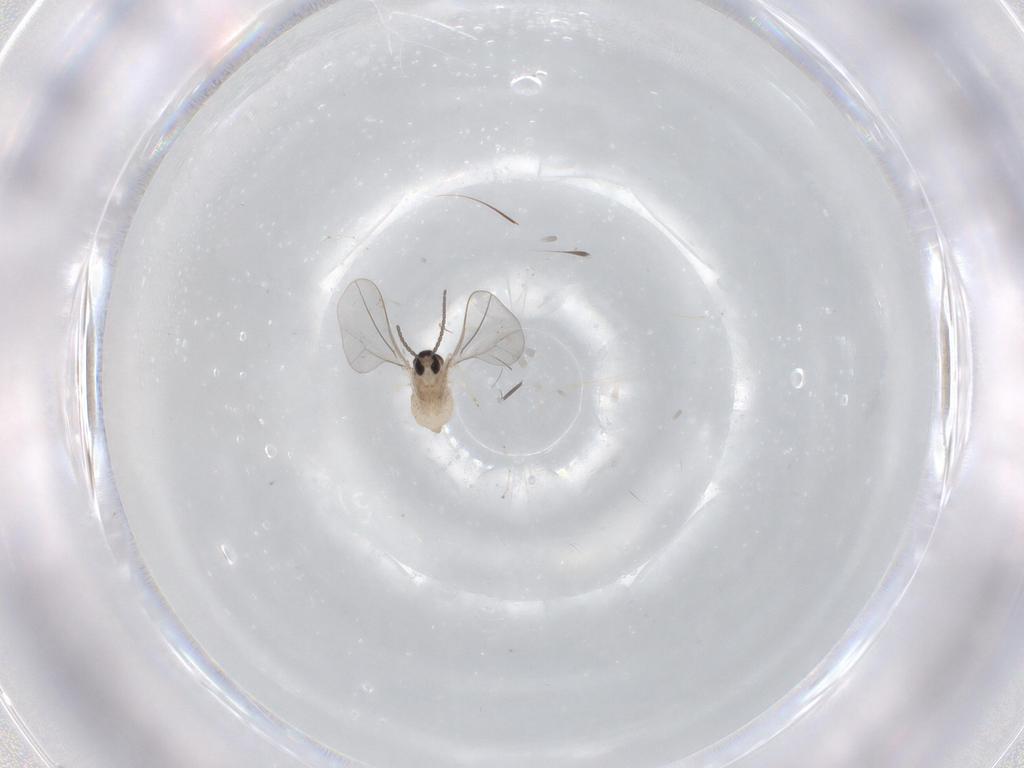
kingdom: Animalia
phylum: Arthropoda
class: Insecta
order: Diptera
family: Cecidomyiidae
